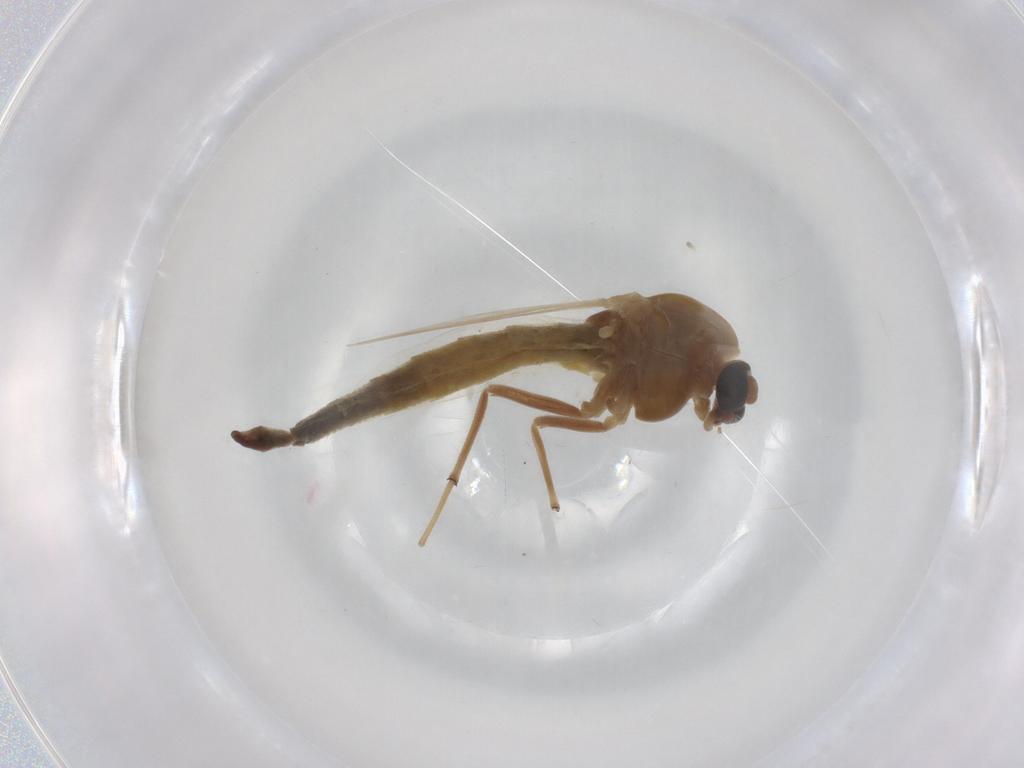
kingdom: Animalia
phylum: Arthropoda
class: Insecta
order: Diptera
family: Chironomidae
